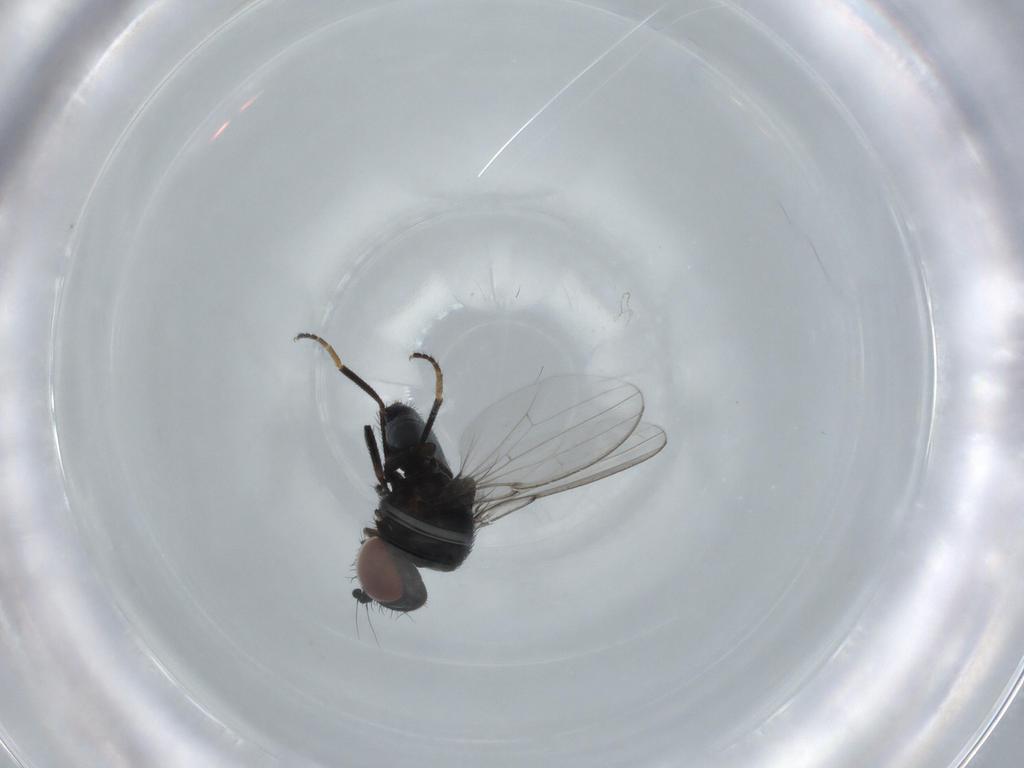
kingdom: Animalia
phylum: Arthropoda
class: Insecta
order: Diptera
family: Milichiidae
